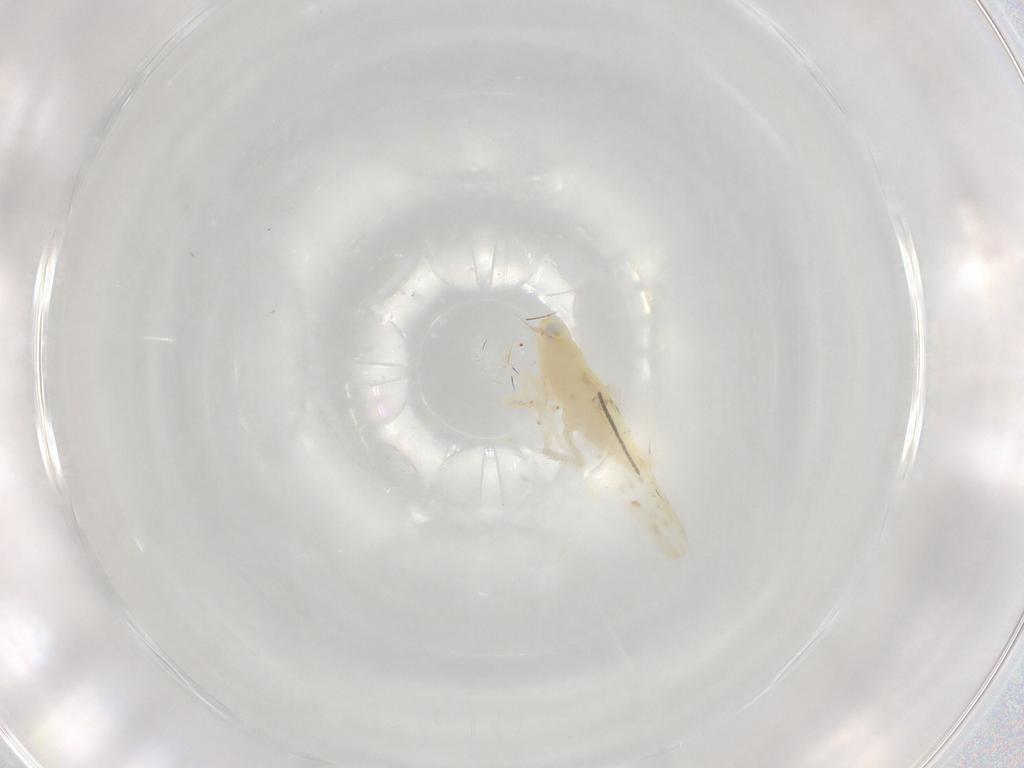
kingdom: Animalia
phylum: Arthropoda
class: Insecta
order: Hemiptera
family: Cicadellidae
